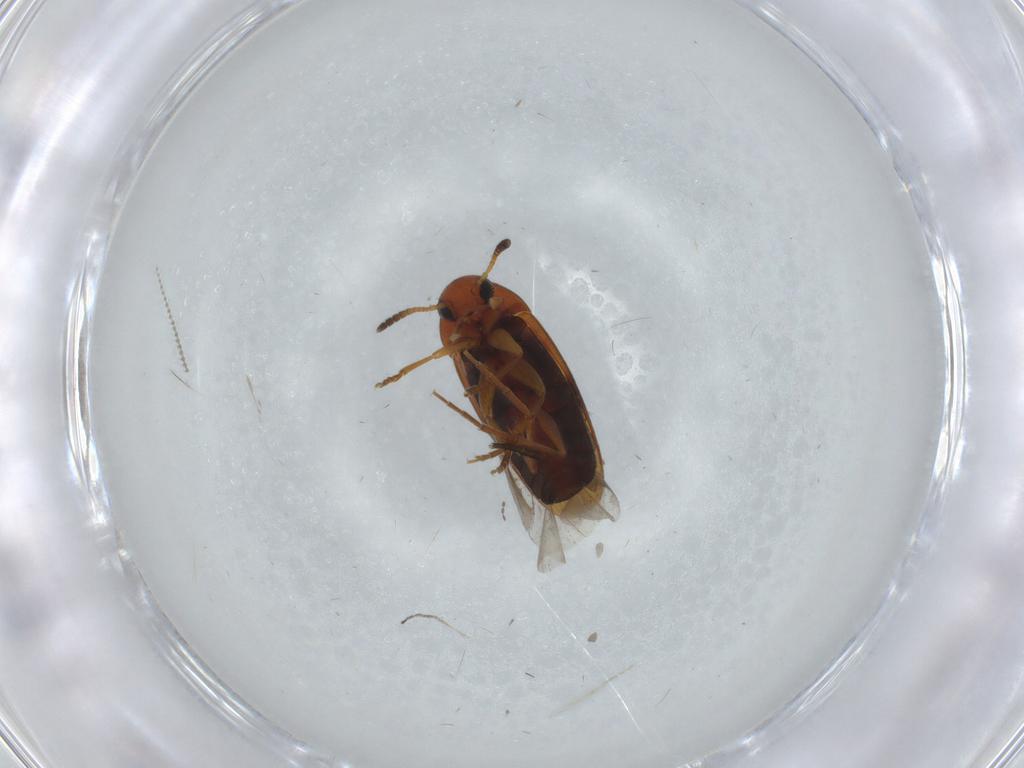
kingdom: Animalia
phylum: Arthropoda
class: Insecta
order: Coleoptera
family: Scraptiidae
